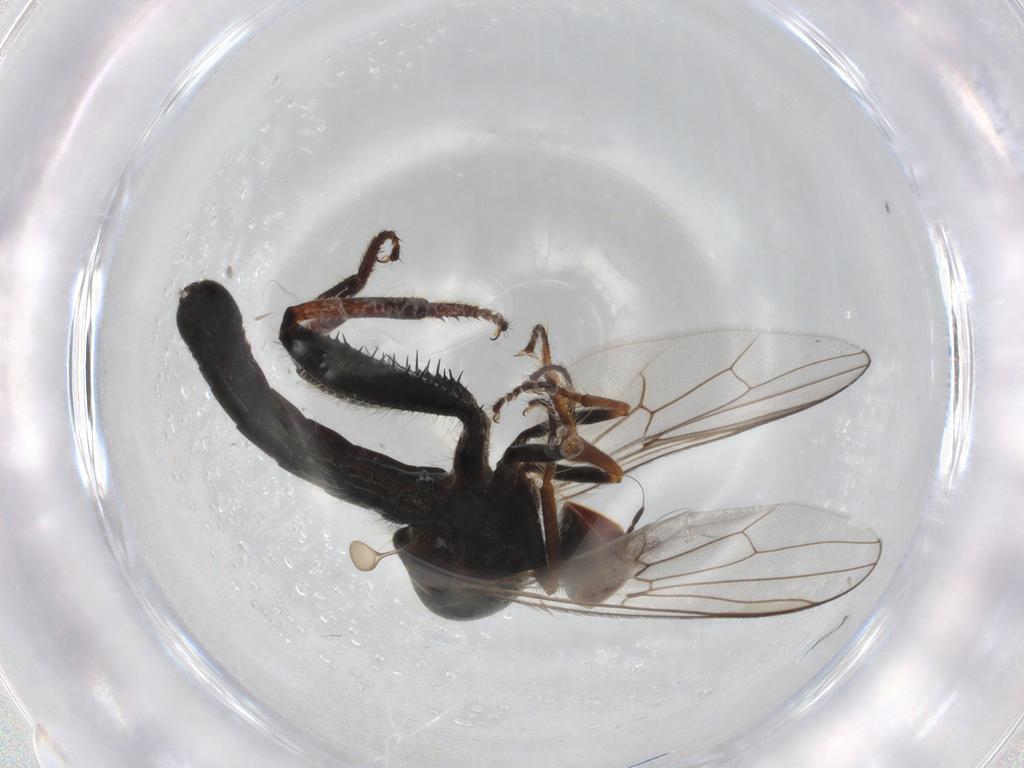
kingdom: Animalia
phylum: Arthropoda
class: Insecta
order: Diptera
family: Hybotidae
